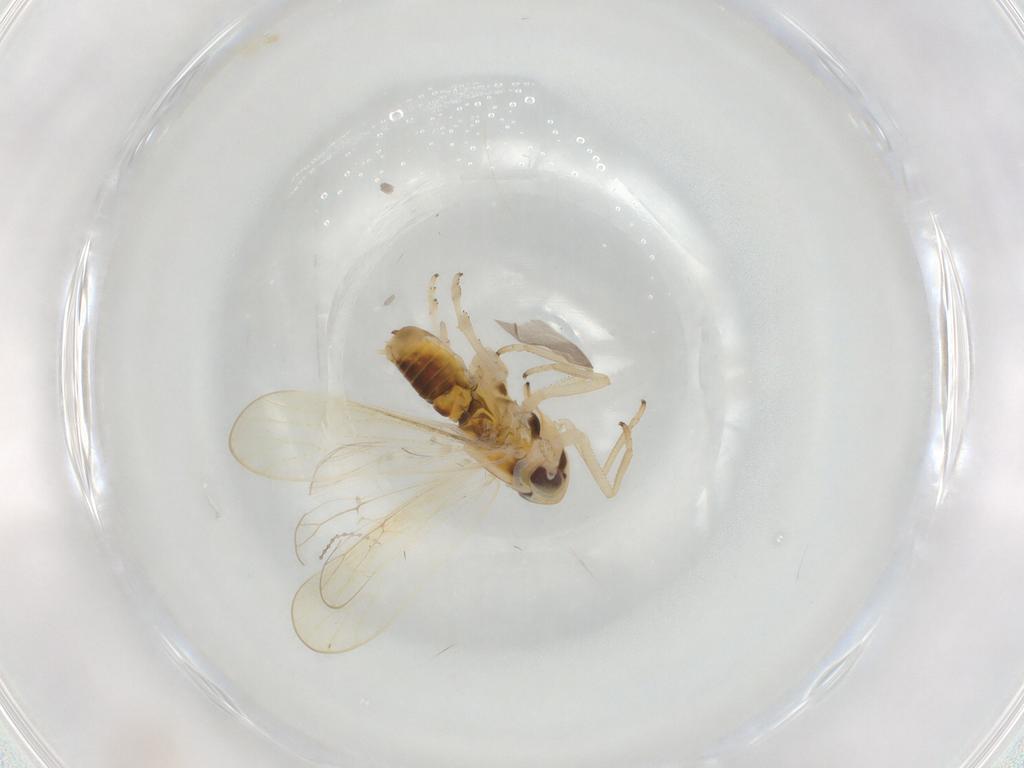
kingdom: Animalia
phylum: Arthropoda
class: Insecta
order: Hemiptera
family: Delphacidae
